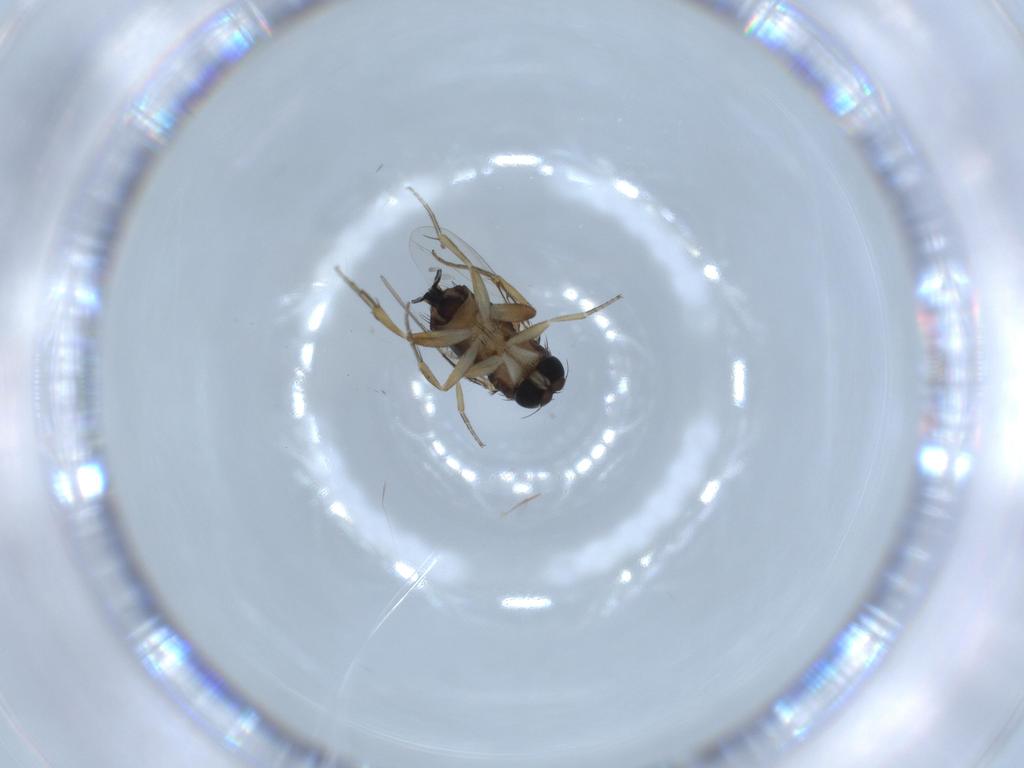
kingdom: Animalia
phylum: Arthropoda
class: Insecta
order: Diptera
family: Phoridae
